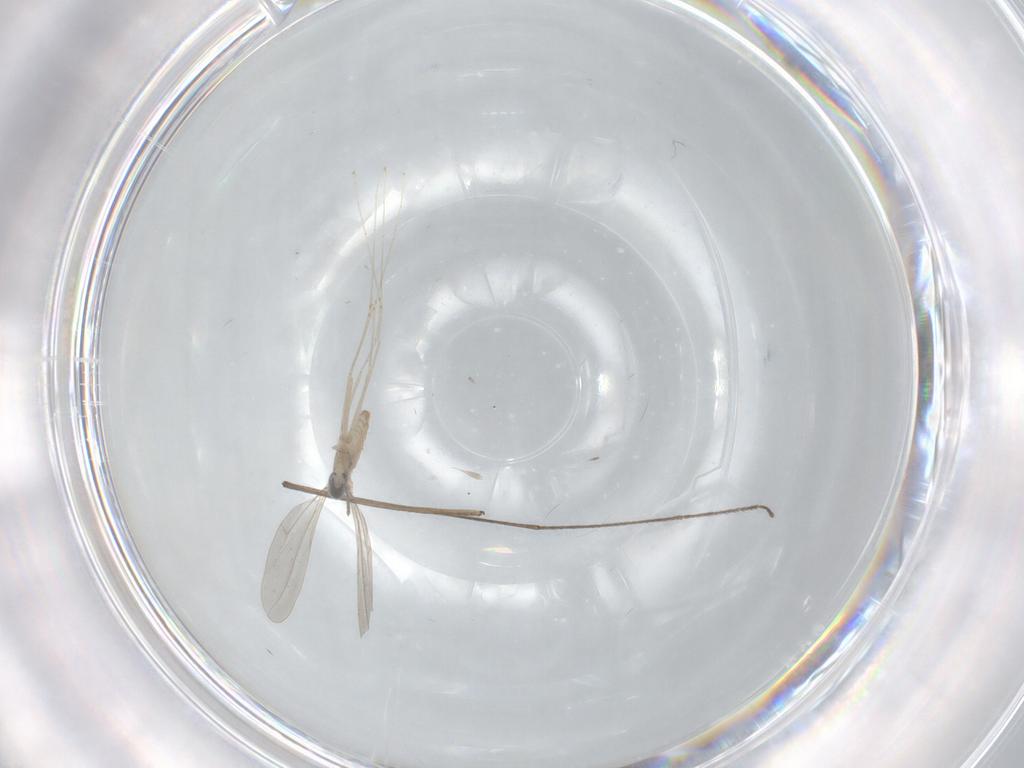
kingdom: Animalia
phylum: Arthropoda
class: Insecta
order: Diptera
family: Limoniidae
